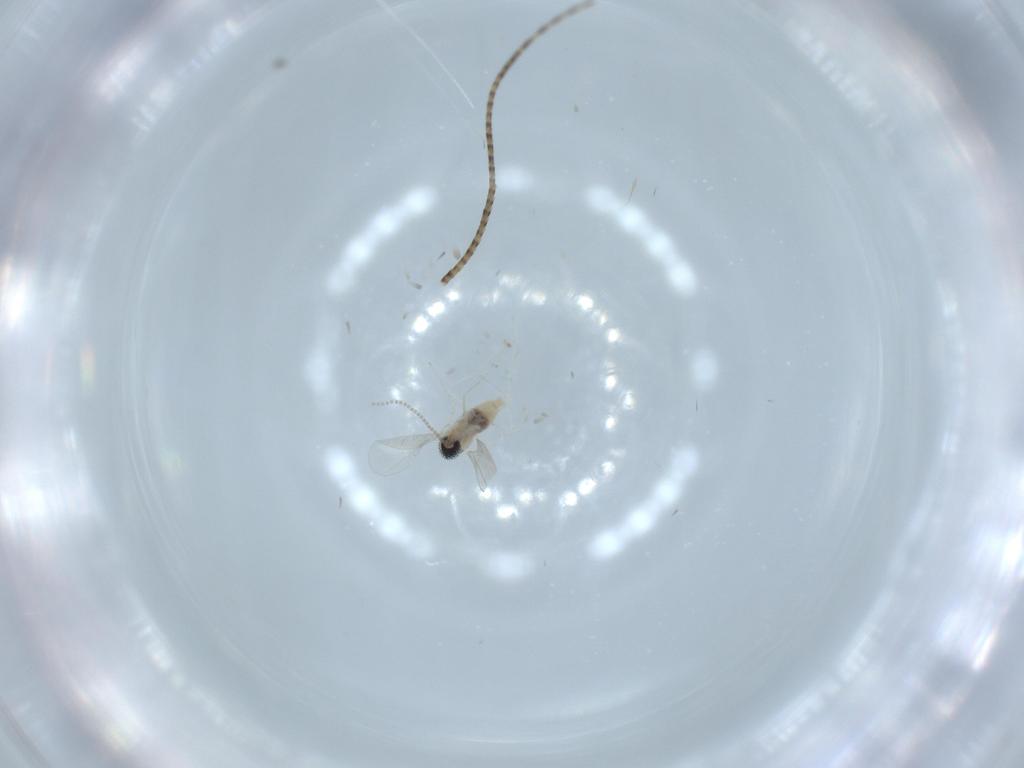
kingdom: Animalia
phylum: Arthropoda
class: Insecta
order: Diptera
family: Cecidomyiidae
